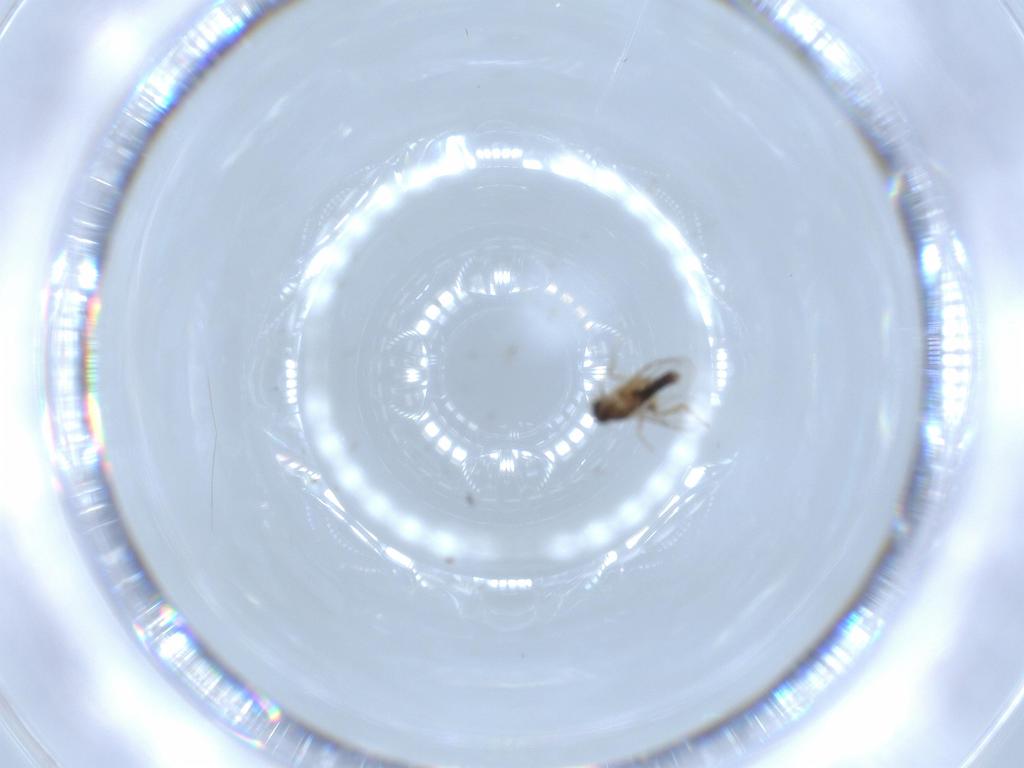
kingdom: Animalia
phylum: Arthropoda
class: Insecta
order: Diptera
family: Phoridae
